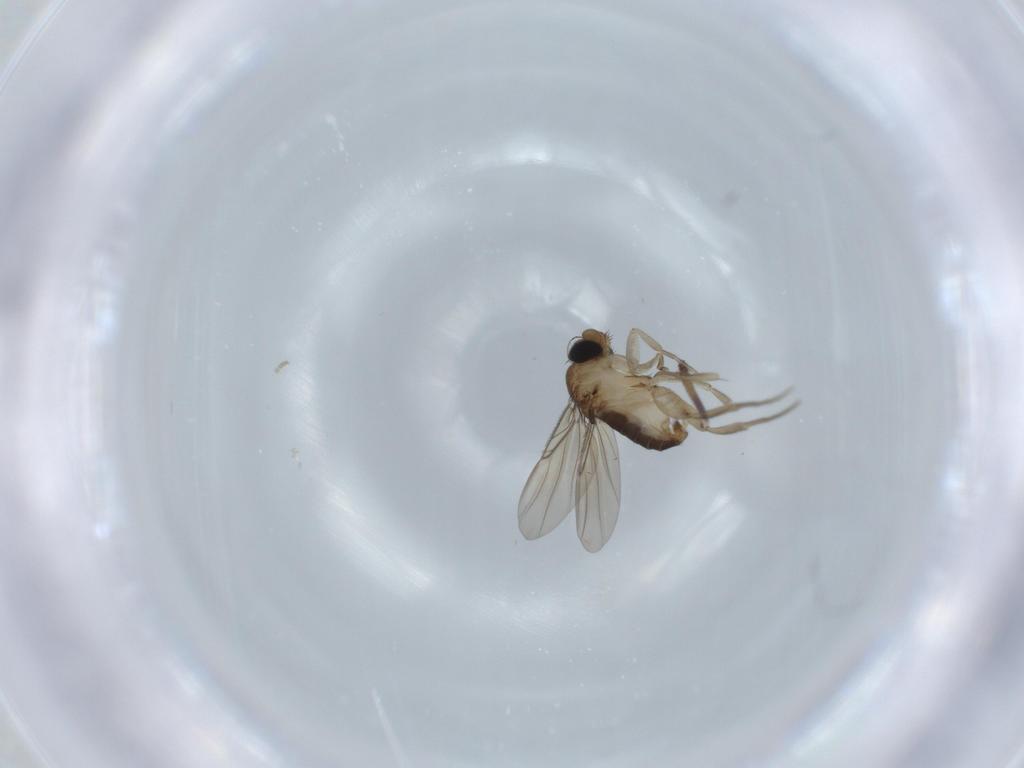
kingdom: Animalia
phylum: Arthropoda
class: Insecta
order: Diptera
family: Phoridae
